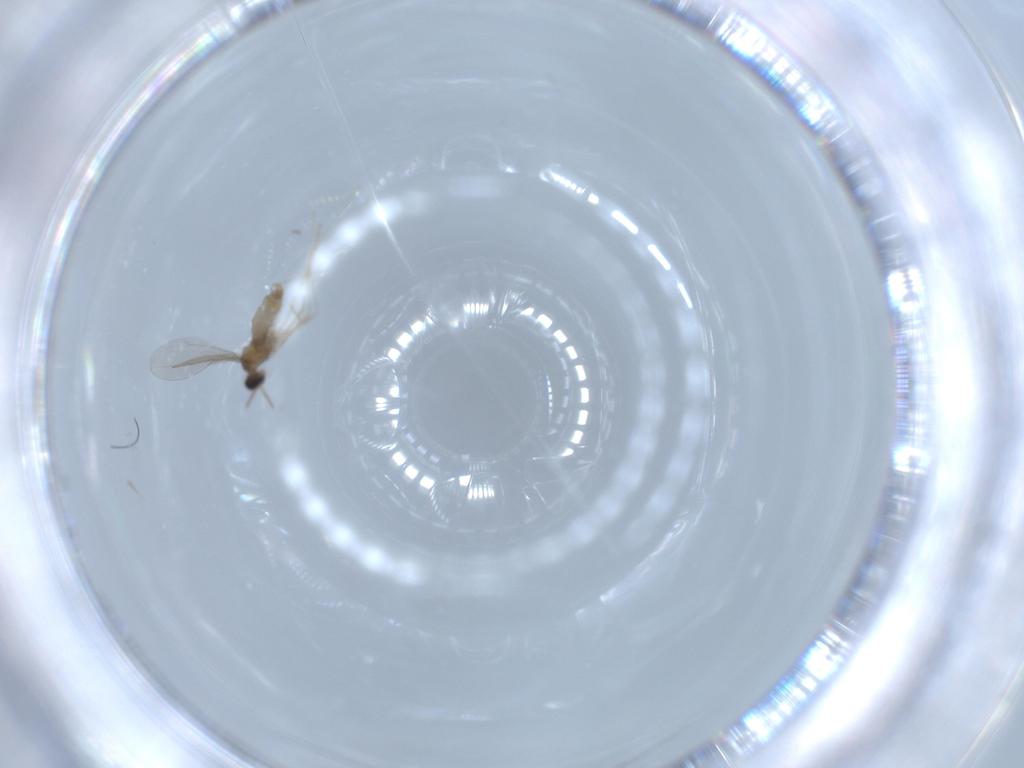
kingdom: Animalia
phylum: Arthropoda
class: Insecta
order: Diptera
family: Cecidomyiidae
